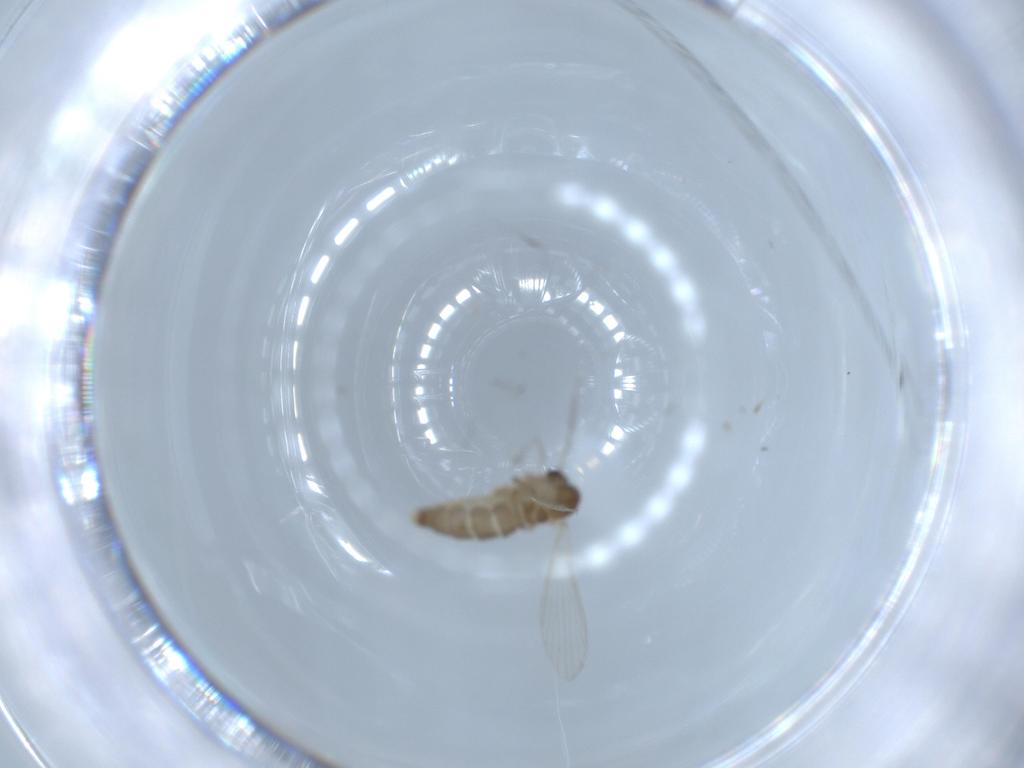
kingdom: Animalia
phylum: Arthropoda
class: Insecta
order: Diptera
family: Psychodidae
